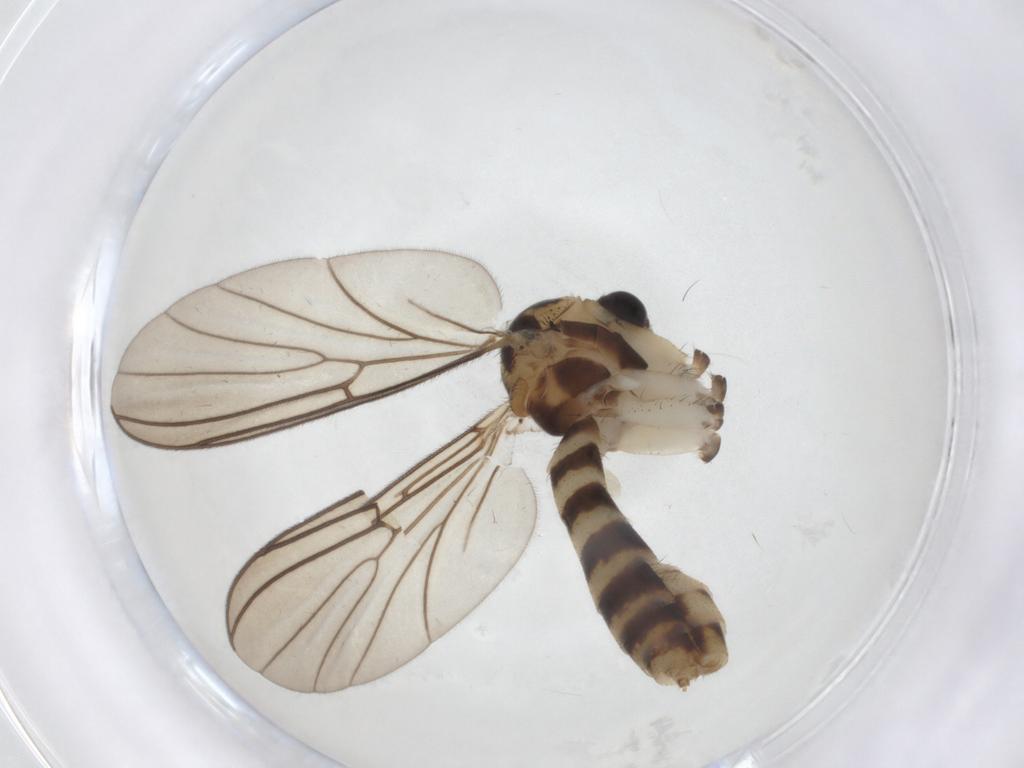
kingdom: Animalia
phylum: Arthropoda
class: Insecta
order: Diptera
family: Mycetophilidae
